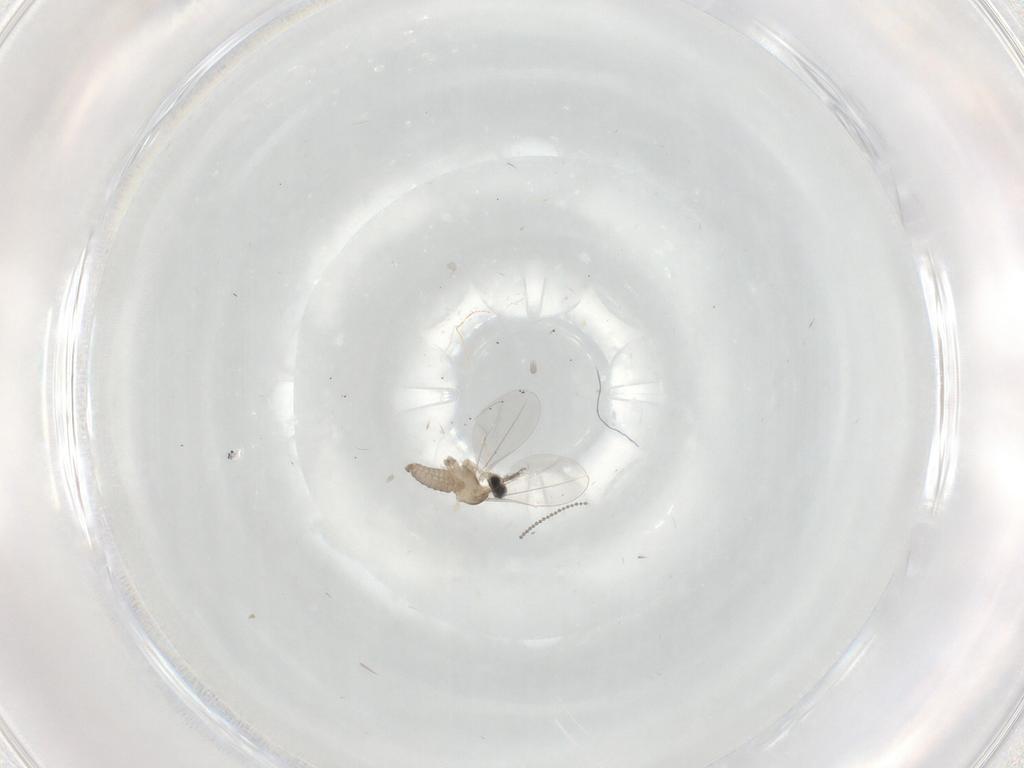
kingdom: Animalia
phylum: Arthropoda
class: Insecta
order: Diptera
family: Cecidomyiidae
